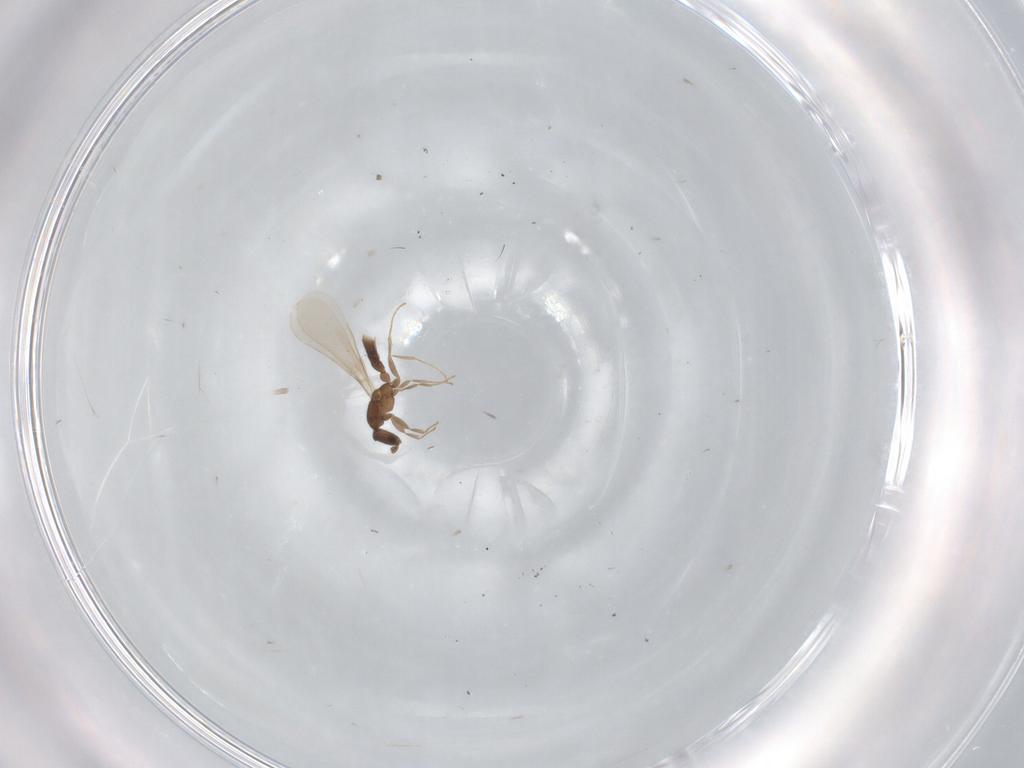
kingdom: Animalia
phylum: Arthropoda
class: Insecta
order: Hymenoptera
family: Formicidae
